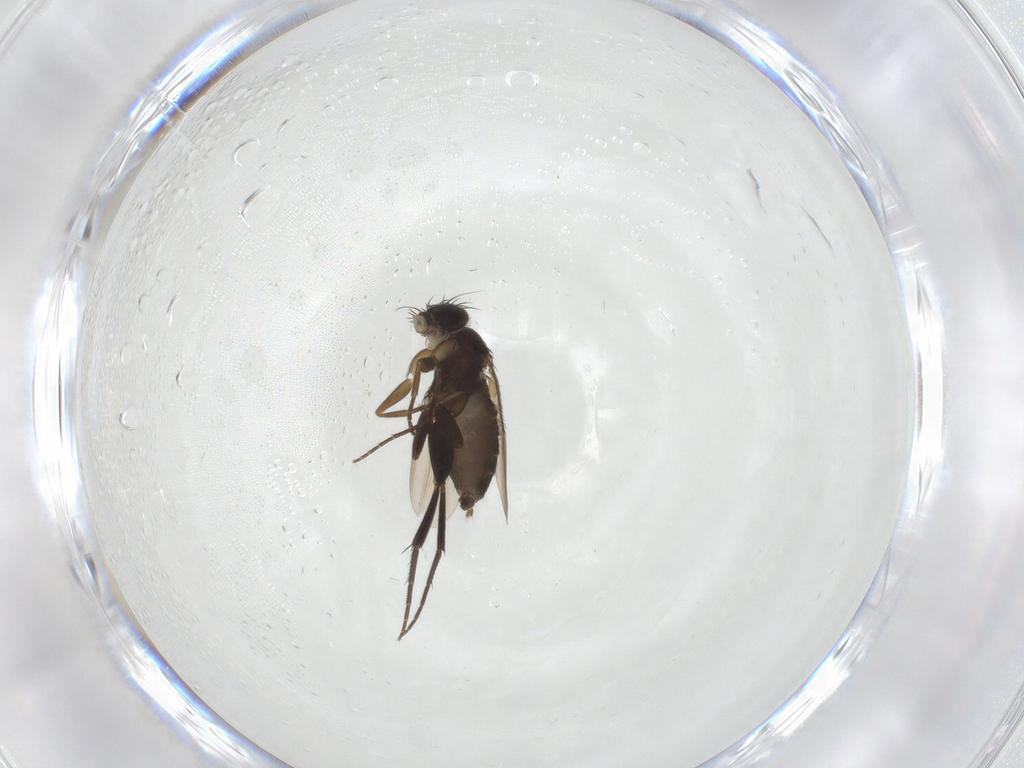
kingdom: Animalia
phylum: Arthropoda
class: Insecta
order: Diptera
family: Phoridae
